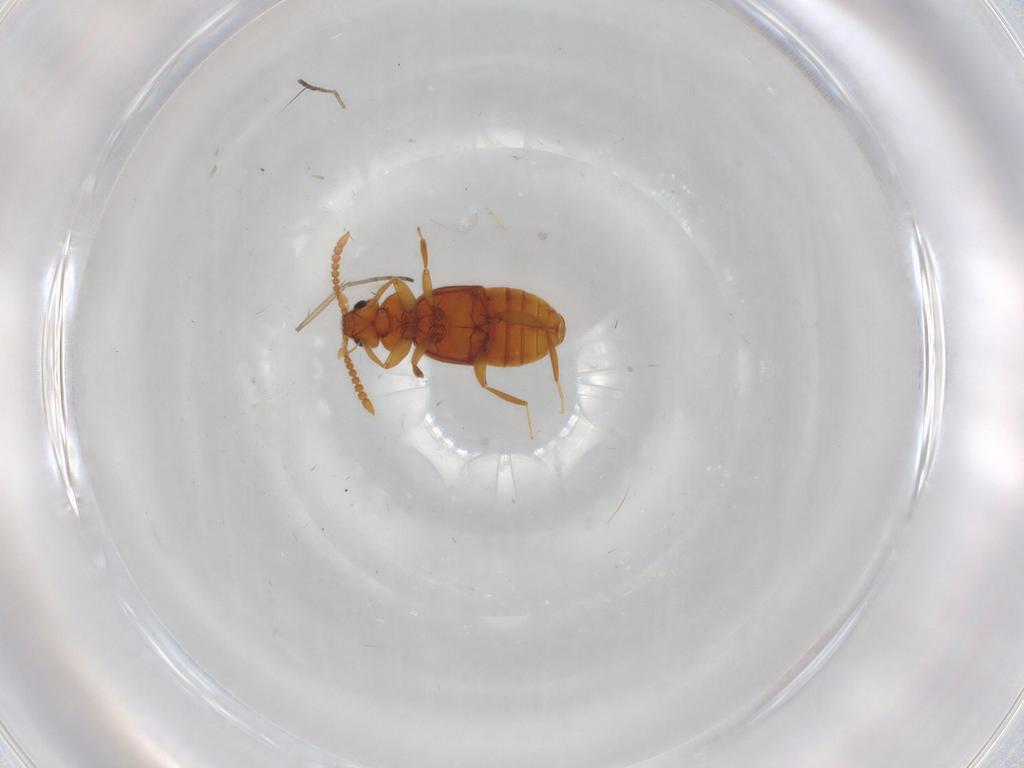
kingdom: Animalia
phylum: Arthropoda
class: Insecta
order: Coleoptera
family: Staphylinidae
